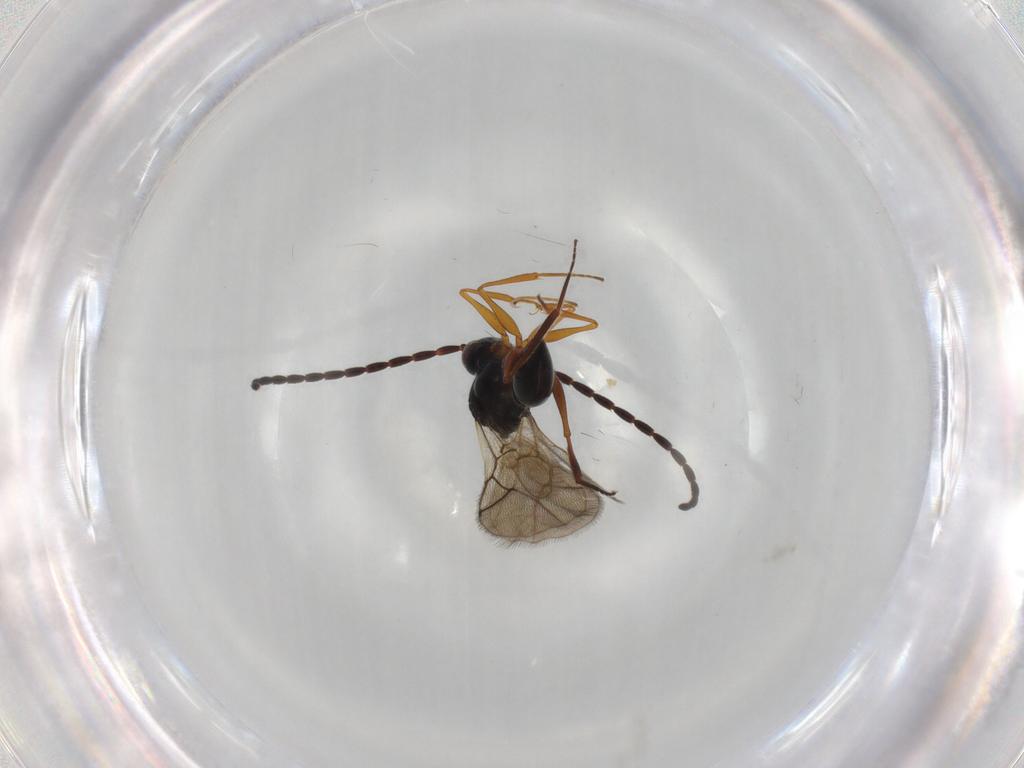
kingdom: Animalia
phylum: Arthropoda
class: Insecta
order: Hymenoptera
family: Figitidae
